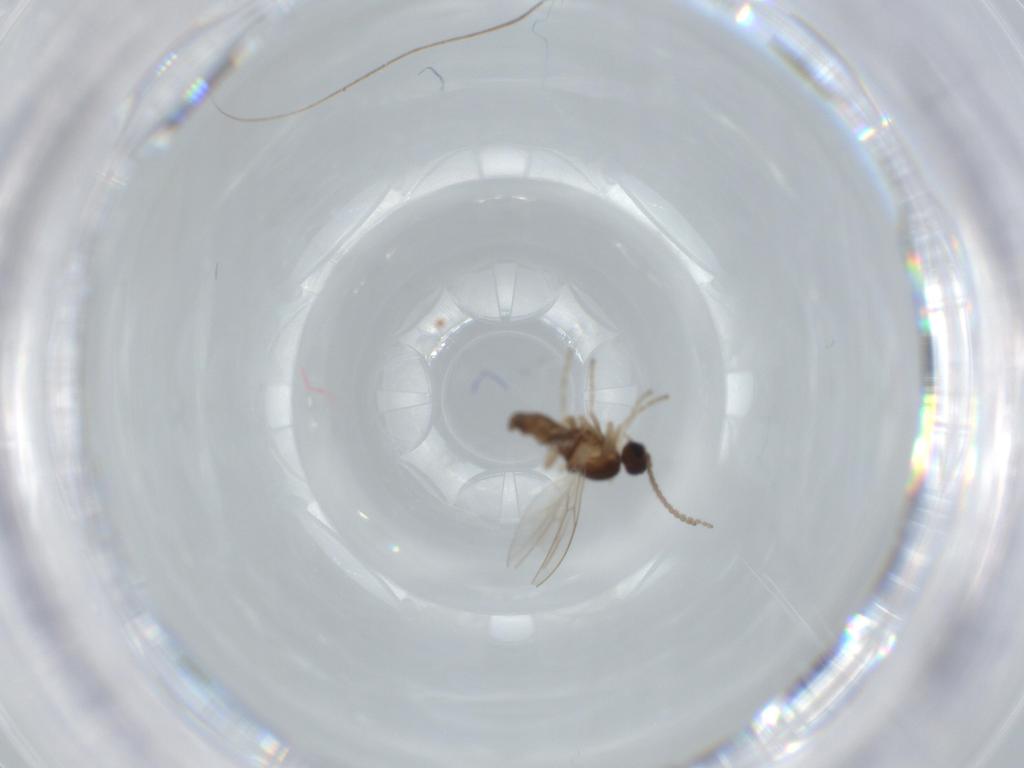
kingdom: Animalia
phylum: Arthropoda
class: Insecta
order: Diptera
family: Cecidomyiidae
